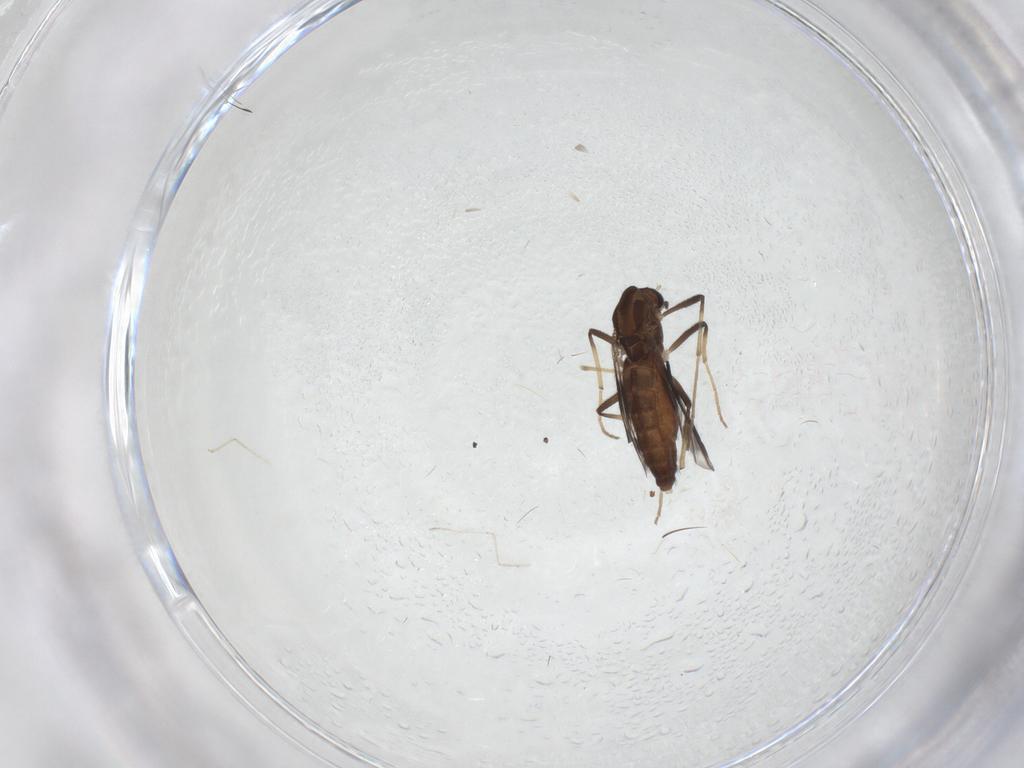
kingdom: Animalia
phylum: Arthropoda
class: Insecta
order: Diptera
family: Chironomidae
